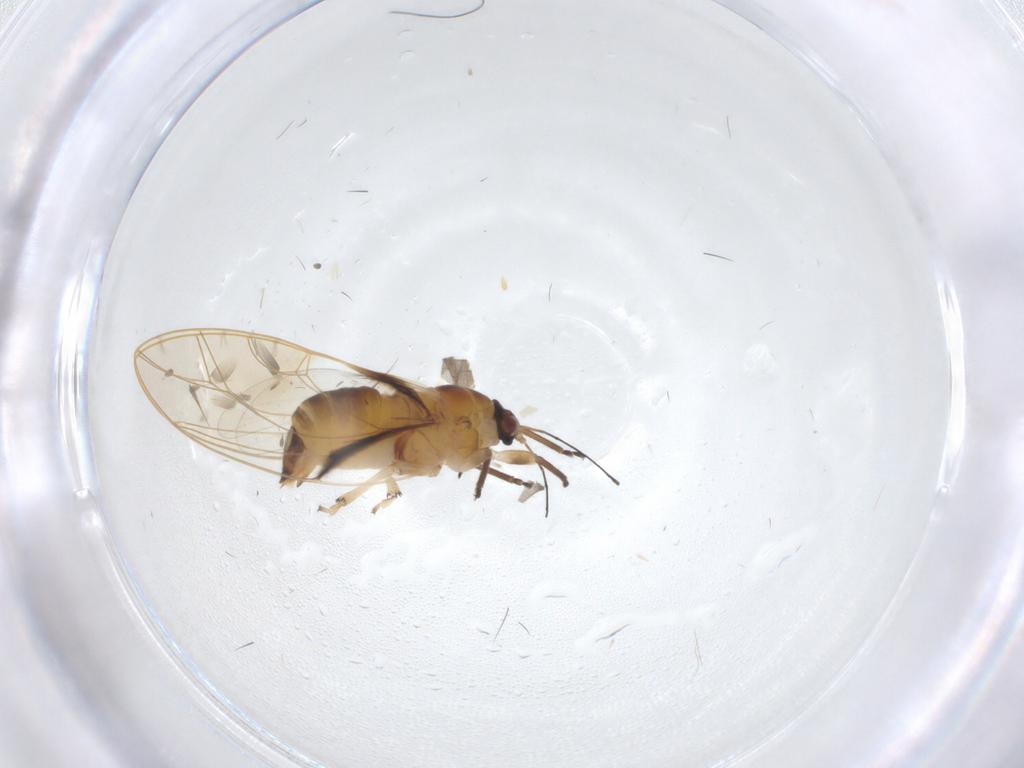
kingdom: Animalia
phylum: Arthropoda
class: Insecta
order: Hemiptera
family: Psylloidea_incertae_sedis
